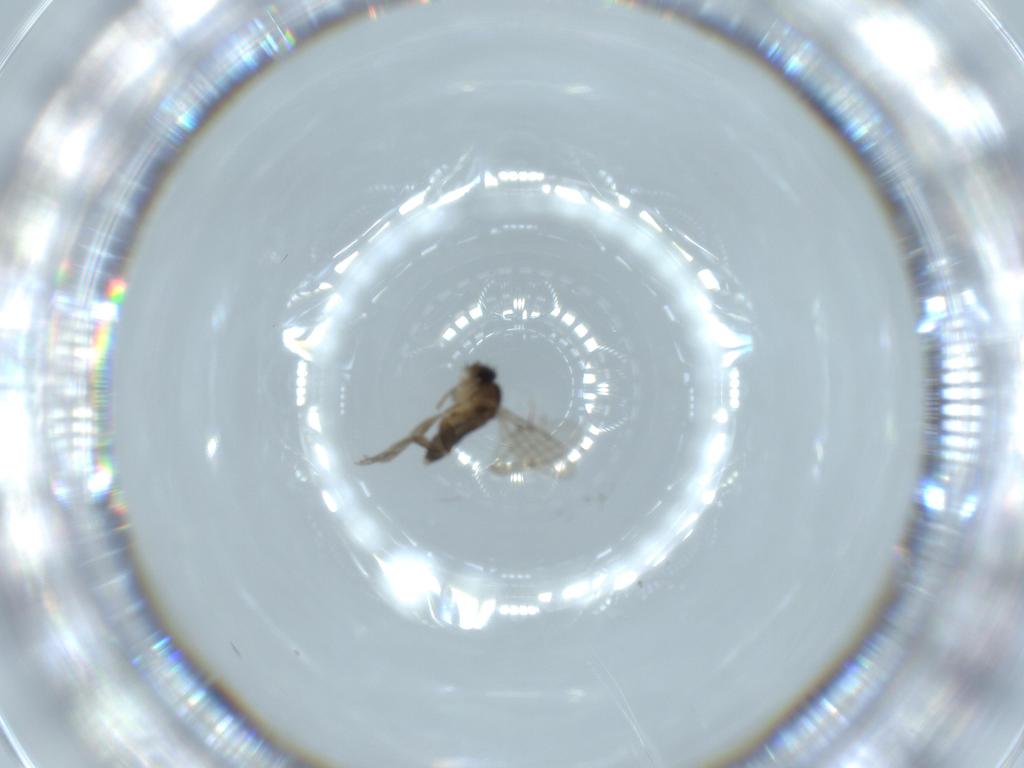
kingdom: Animalia
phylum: Arthropoda
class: Insecta
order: Diptera
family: Phoridae
